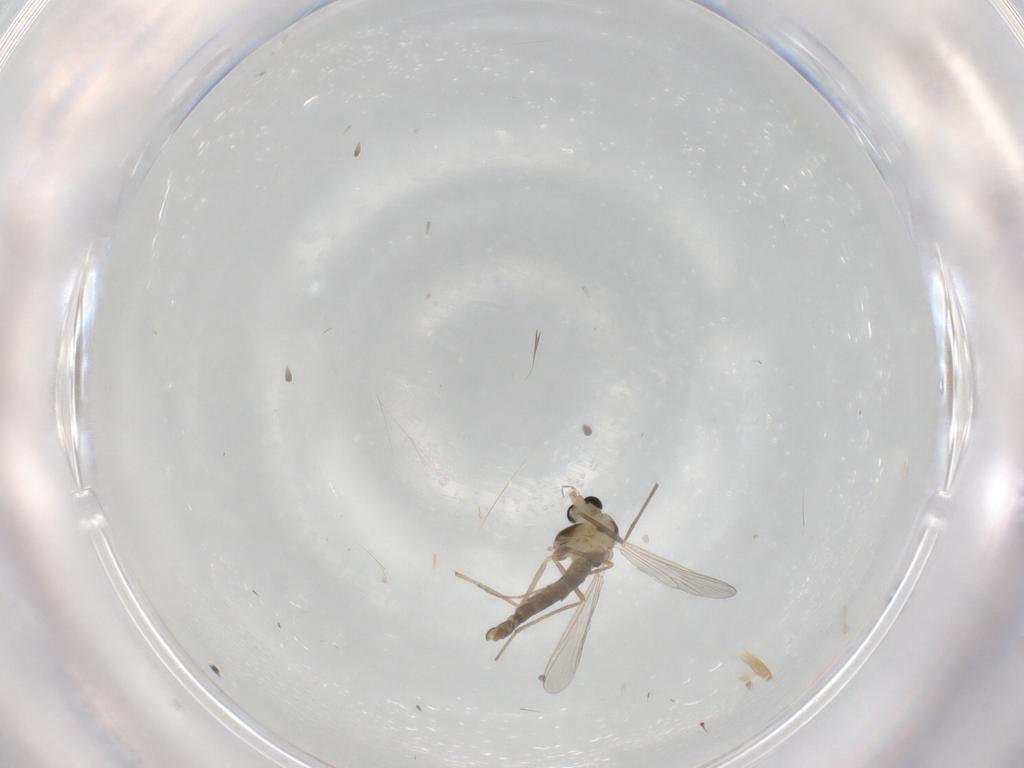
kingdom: Animalia
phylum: Arthropoda
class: Insecta
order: Diptera
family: Chironomidae
